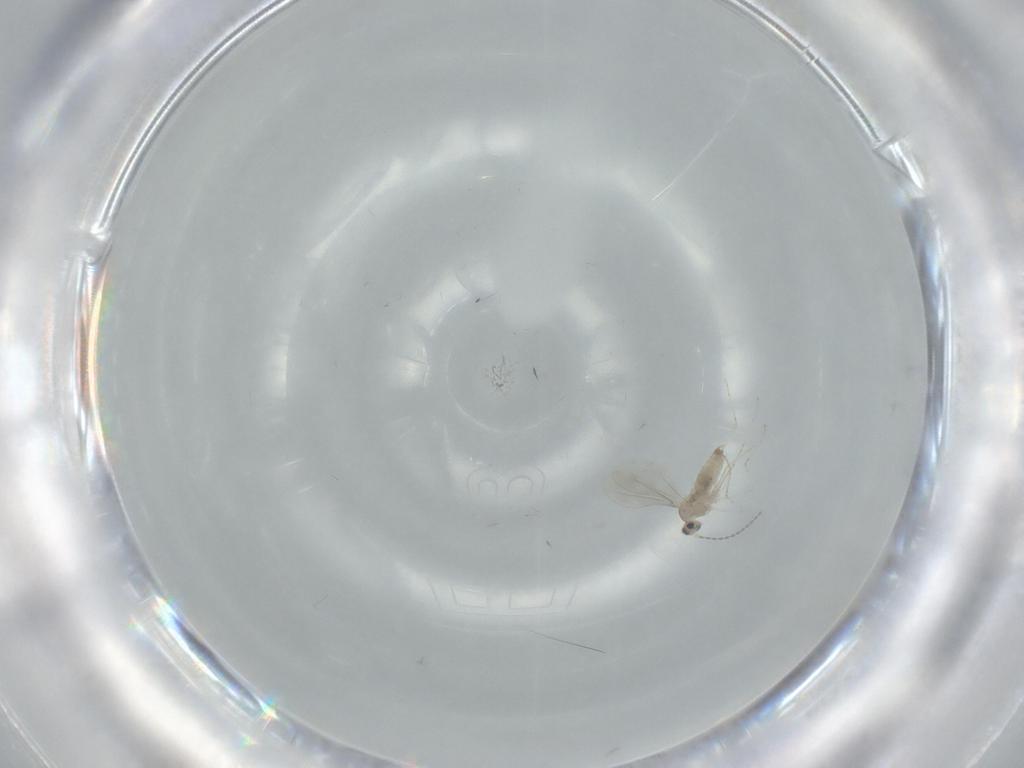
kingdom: Animalia
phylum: Arthropoda
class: Insecta
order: Diptera
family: Cecidomyiidae
